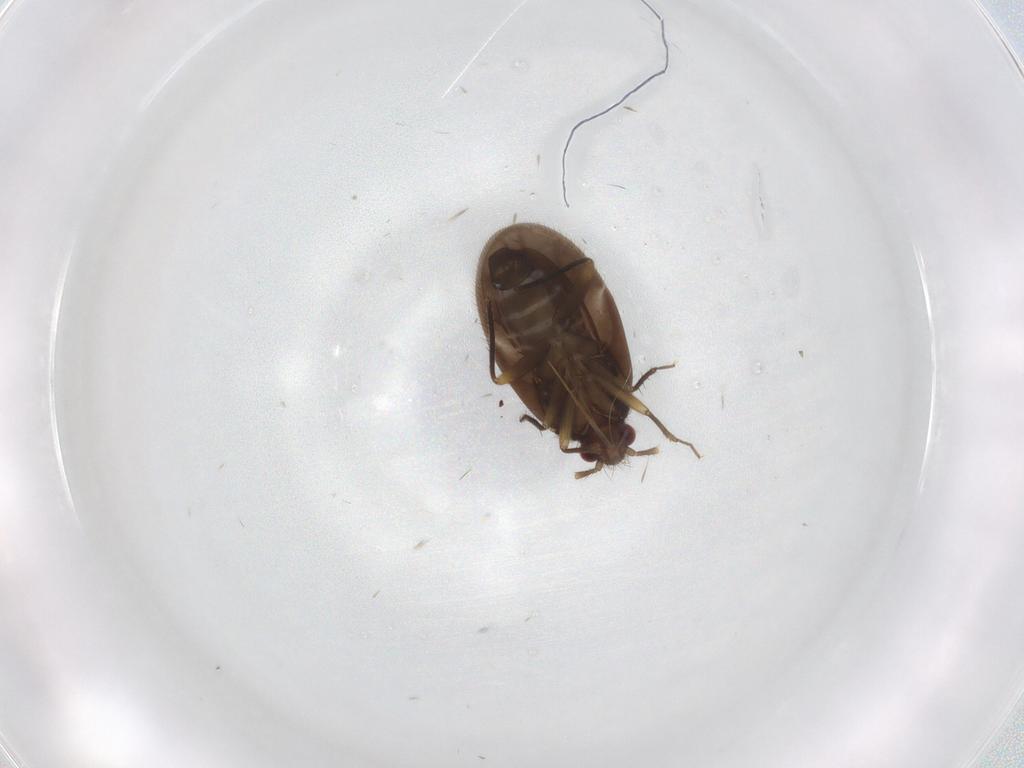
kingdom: Animalia
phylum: Arthropoda
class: Insecta
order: Hemiptera
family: Ceratocombidae
